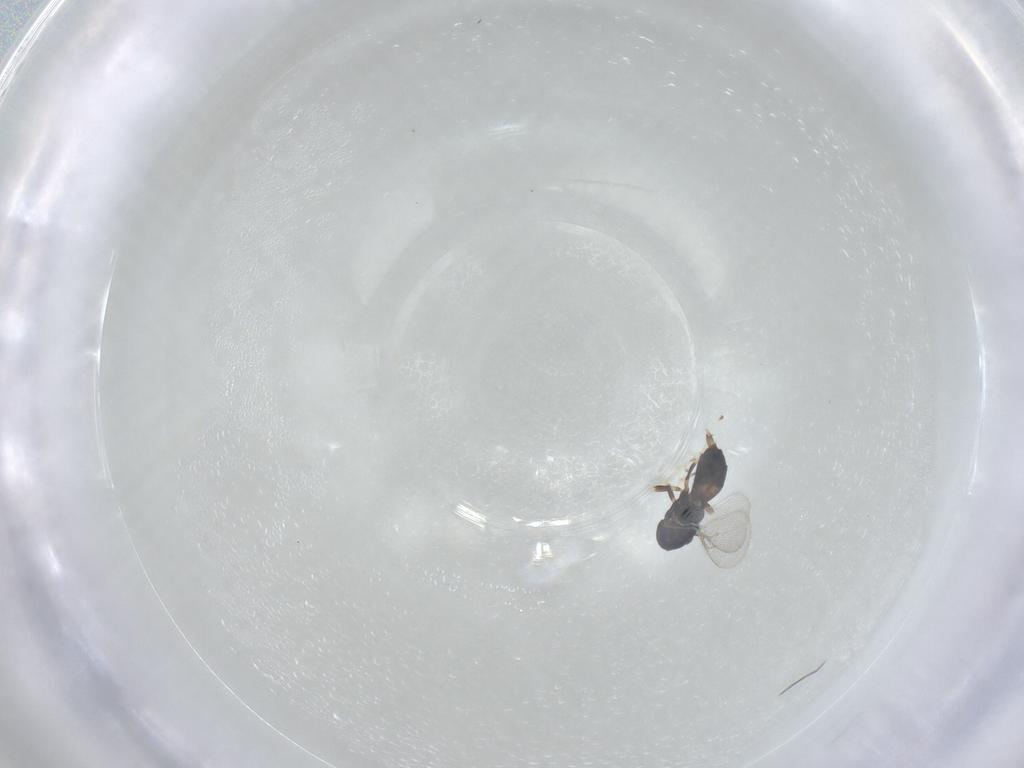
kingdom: Animalia
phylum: Arthropoda
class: Insecta
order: Hymenoptera
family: Eulophidae
